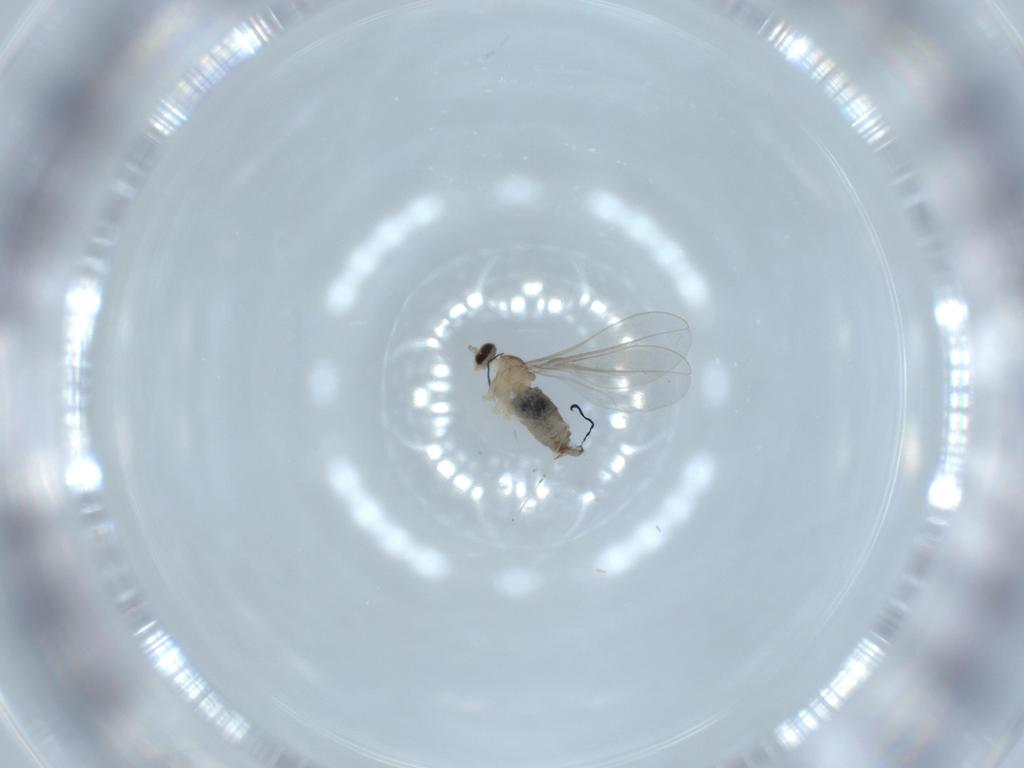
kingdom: Animalia
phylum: Arthropoda
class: Insecta
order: Diptera
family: Cecidomyiidae
